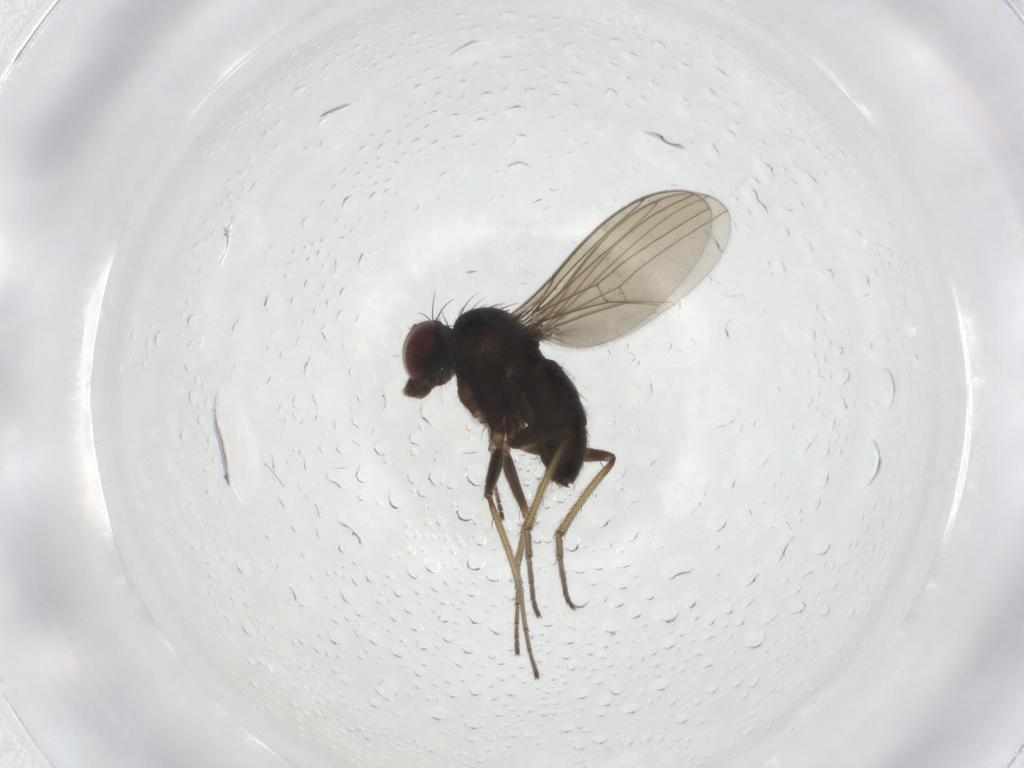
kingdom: Animalia
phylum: Arthropoda
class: Insecta
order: Diptera
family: Dolichopodidae
